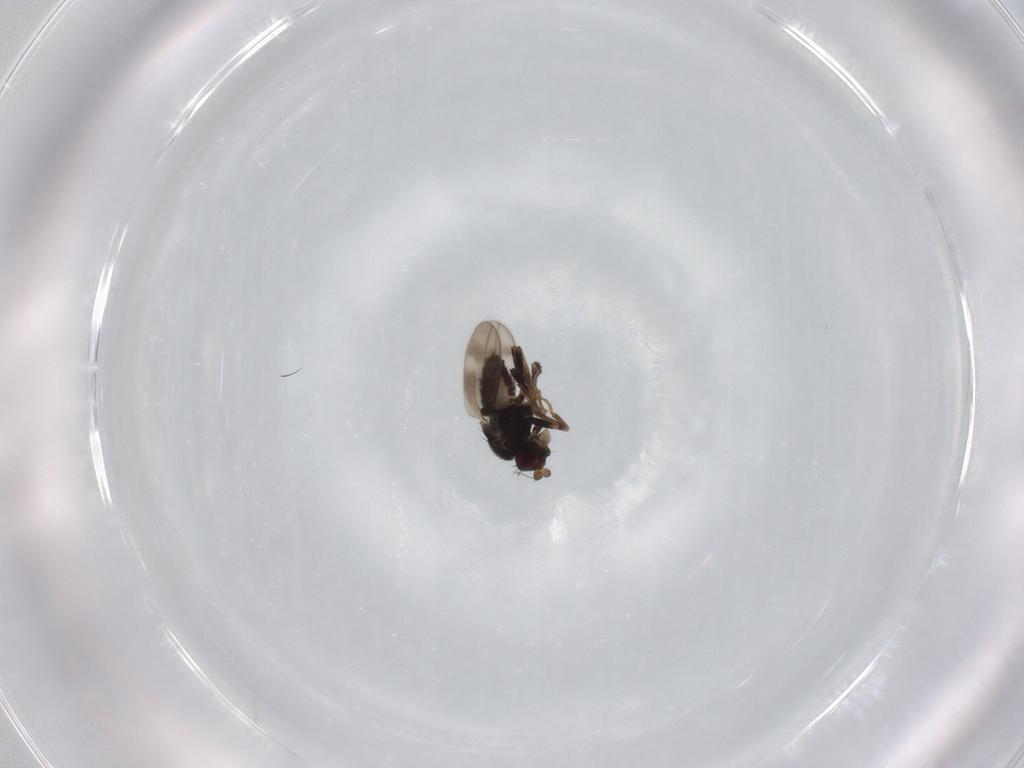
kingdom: Animalia
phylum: Arthropoda
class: Insecta
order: Diptera
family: Sphaeroceridae
